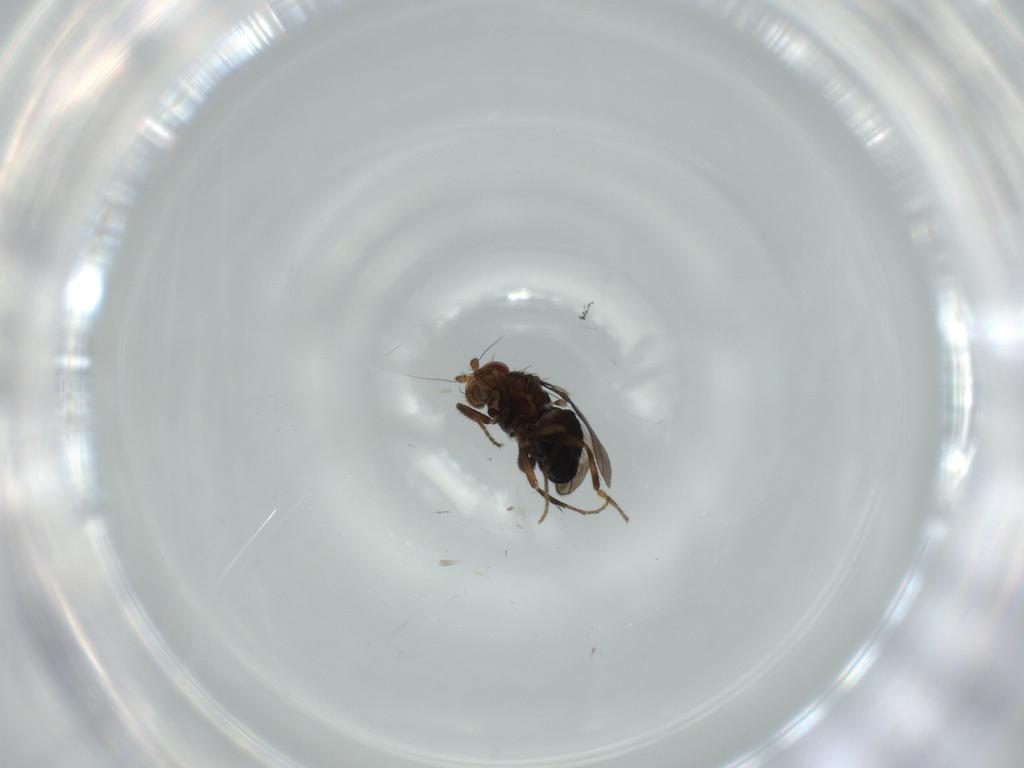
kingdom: Animalia
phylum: Arthropoda
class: Insecta
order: Diptera
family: Sphaeroceridae
